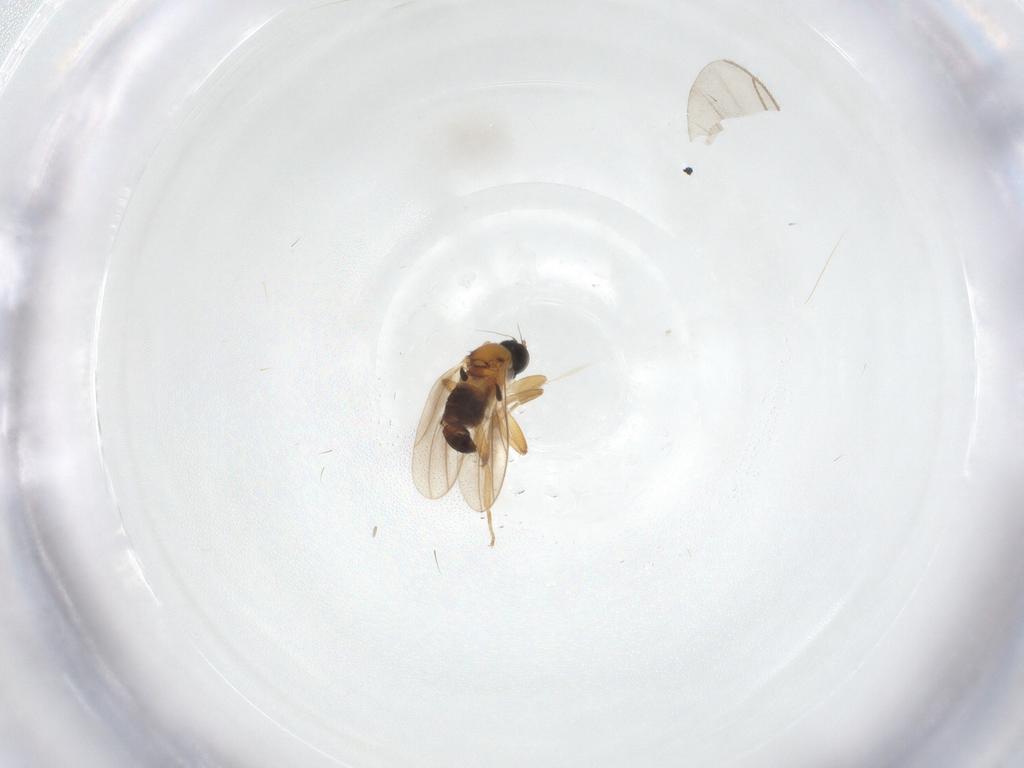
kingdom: Animalia
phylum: Arthropoda
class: Insecta
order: Diptera
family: Hybotidae
